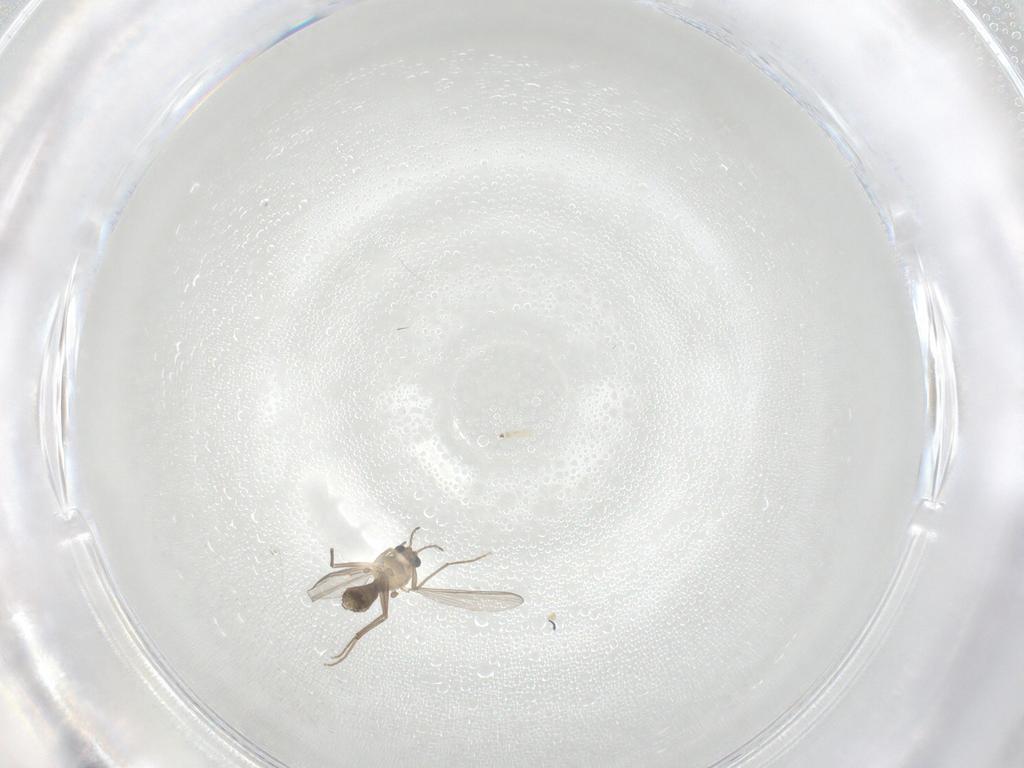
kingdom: Animalia
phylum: Arthropoda
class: Insecta
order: Diptera
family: Chironomidae
